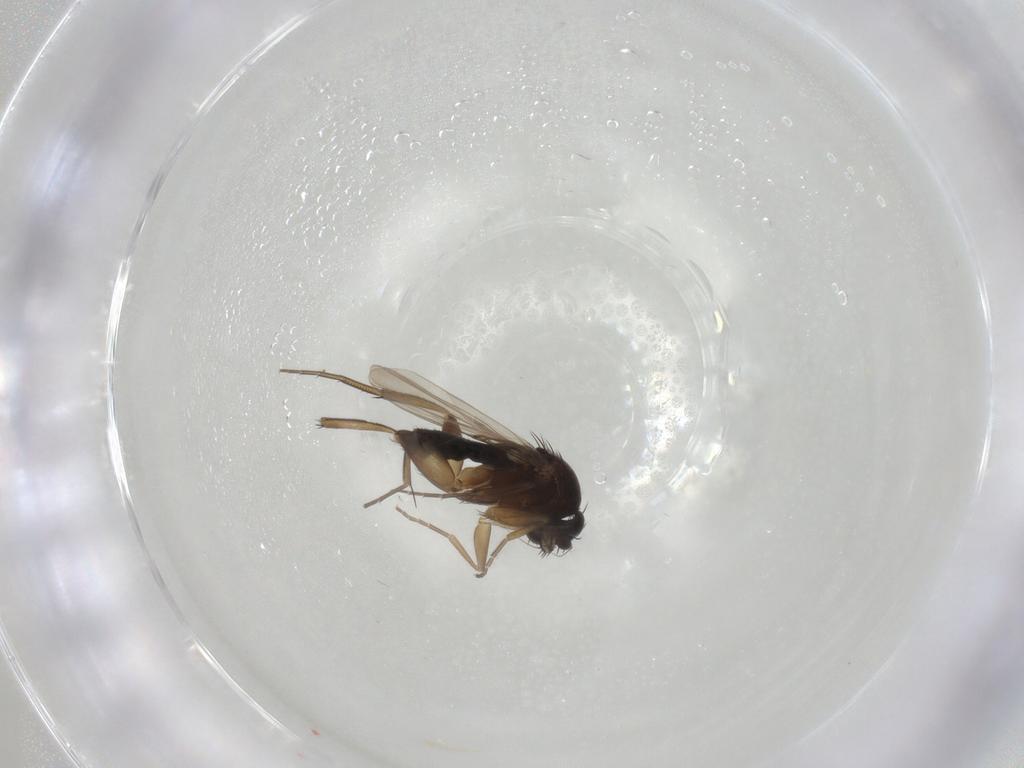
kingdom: Animalia
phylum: Arthropoda
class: Insecta
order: Diptera
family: Phoridae
